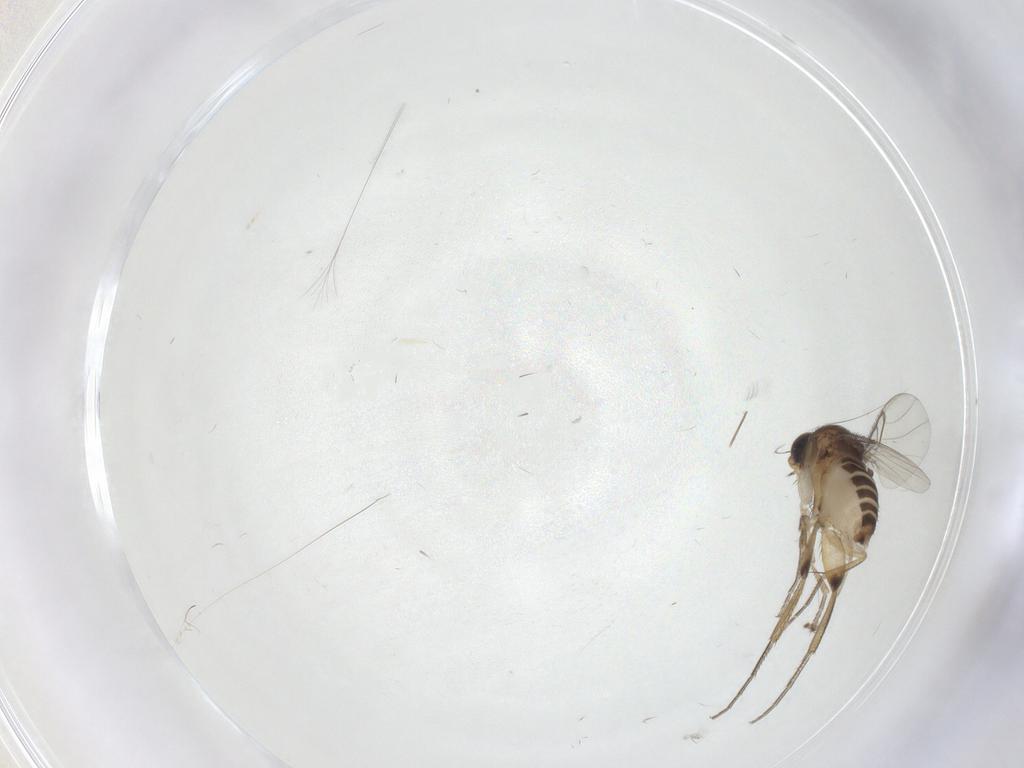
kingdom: Animalia
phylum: Arthropoda
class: Insecta
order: Diptera
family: Phoridae
